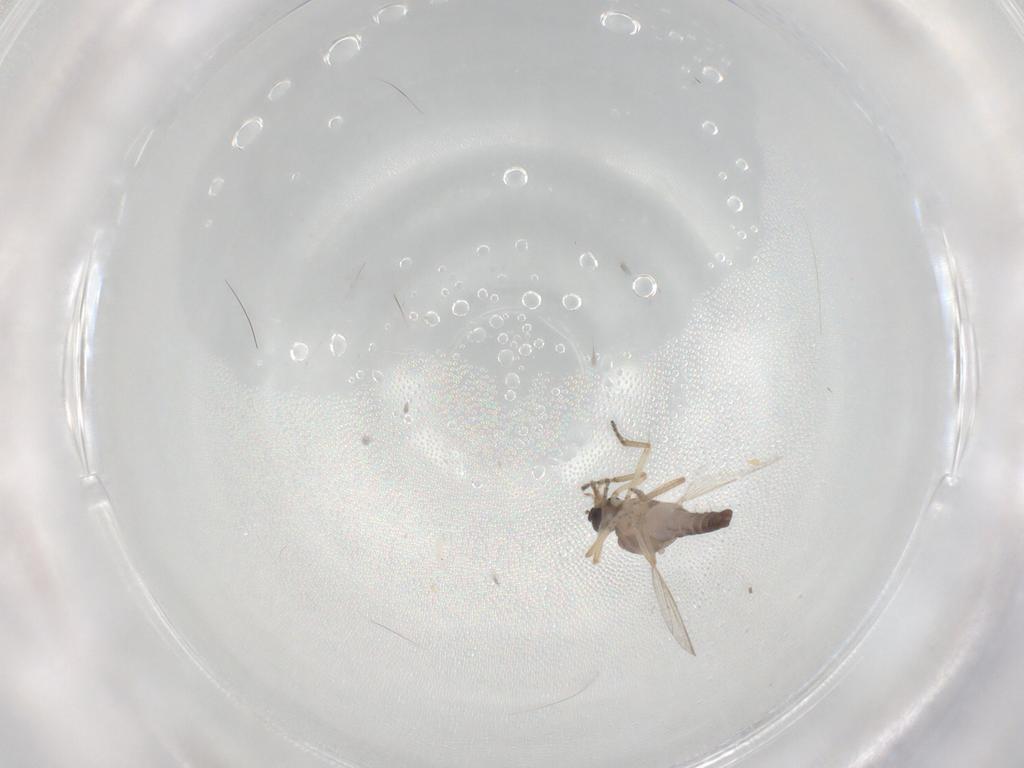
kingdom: Animalia
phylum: Arthropoda
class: Insecta
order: Diptera
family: Ceratopogonidae
